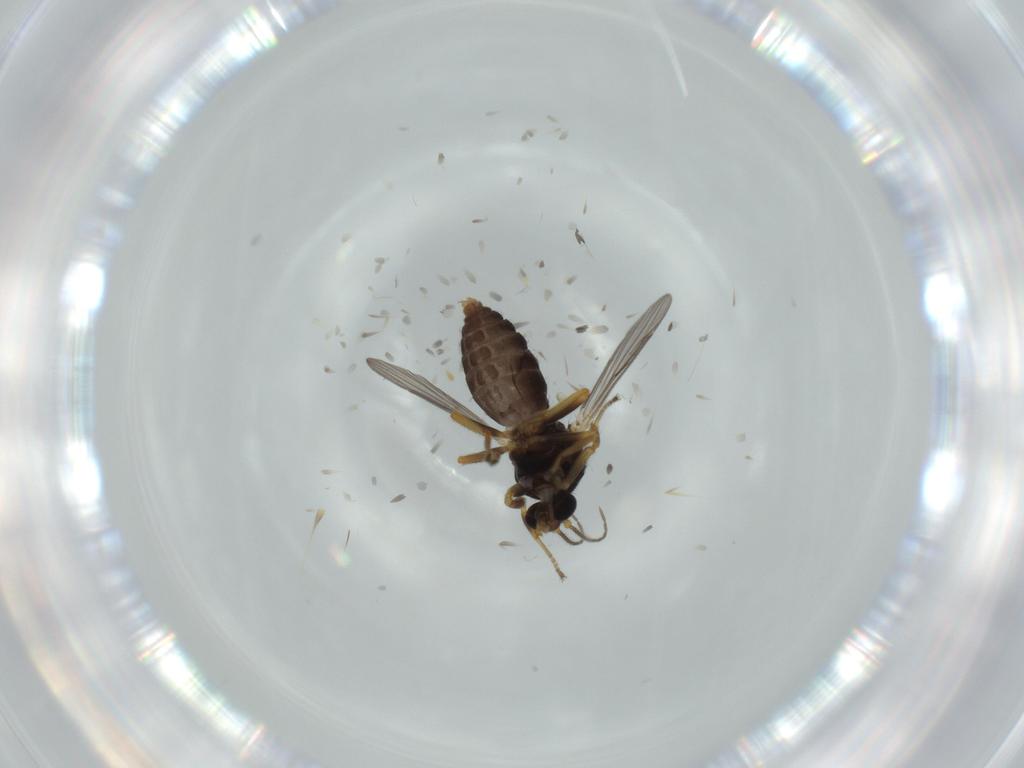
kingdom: Animalia
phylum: Arthropoda
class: Insecta
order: Diptera
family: Ceratopogonidae
